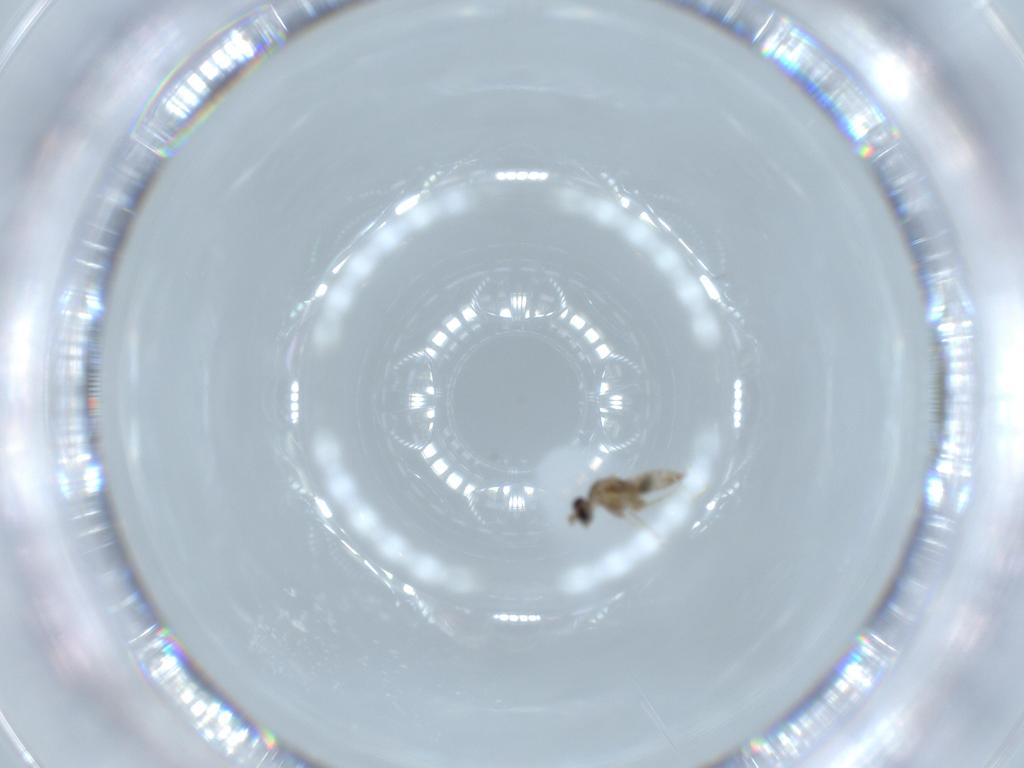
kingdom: Animalia
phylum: Arthropoda
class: Insecta
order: Diptera
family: Cecidomyiidae
